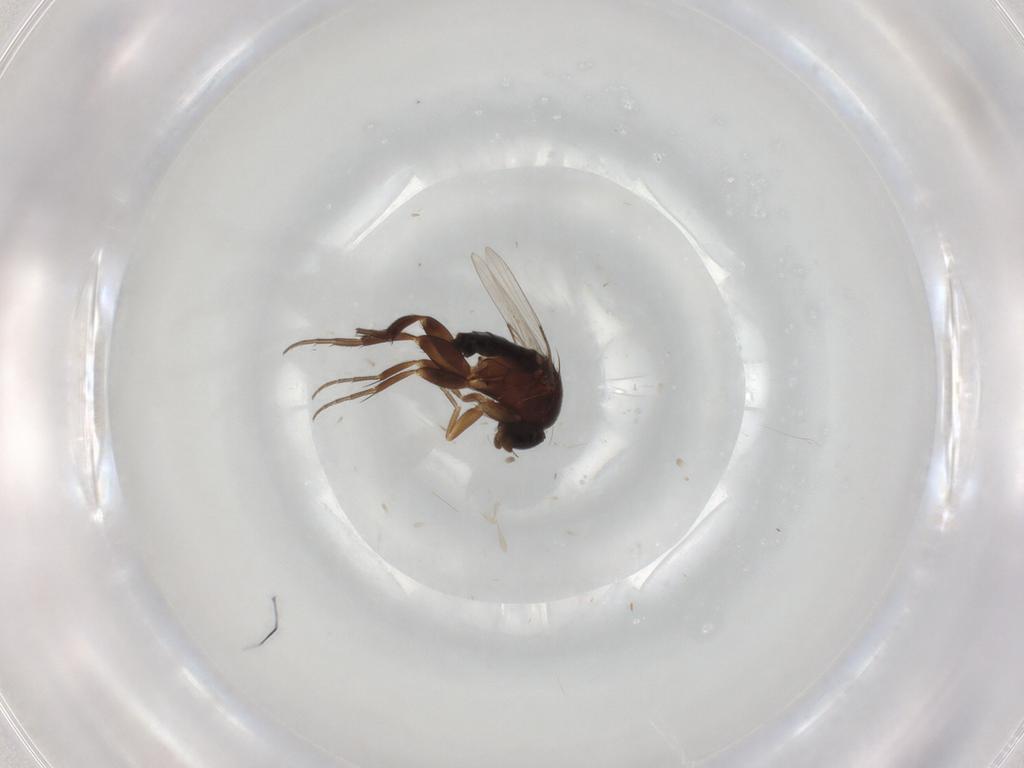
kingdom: Animalia
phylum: Arthropoda
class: Insecta
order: Diptera
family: Phoridae
